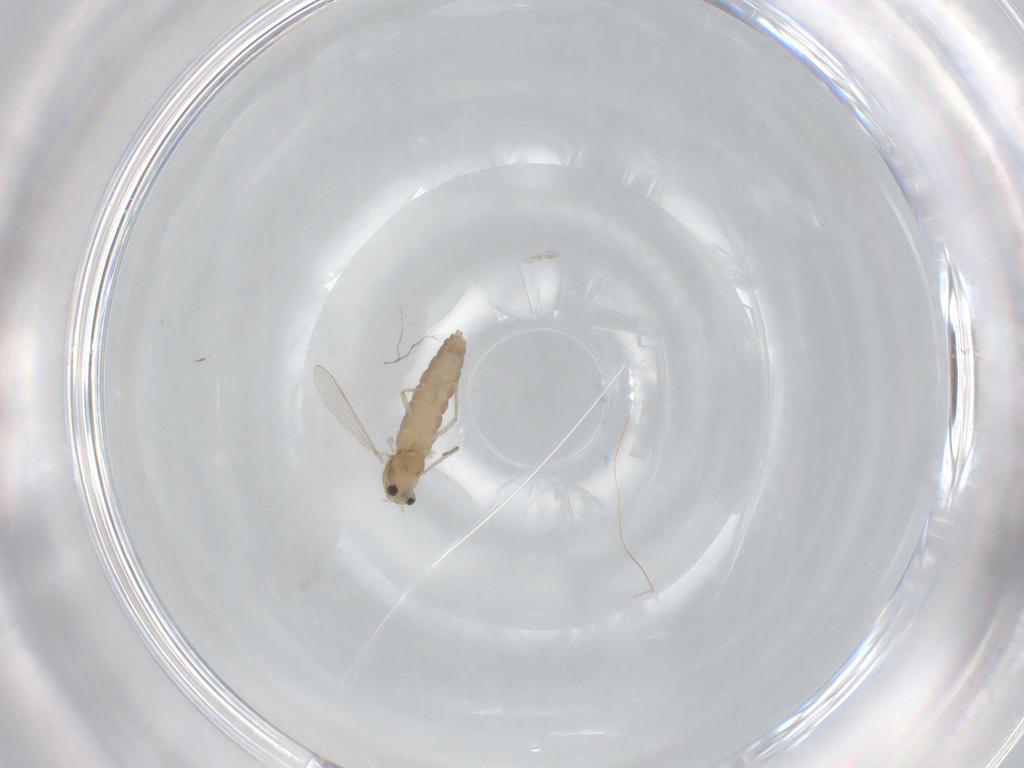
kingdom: Animalia
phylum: Arthropoda
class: Insecta
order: Diptera
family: Chironomidae
